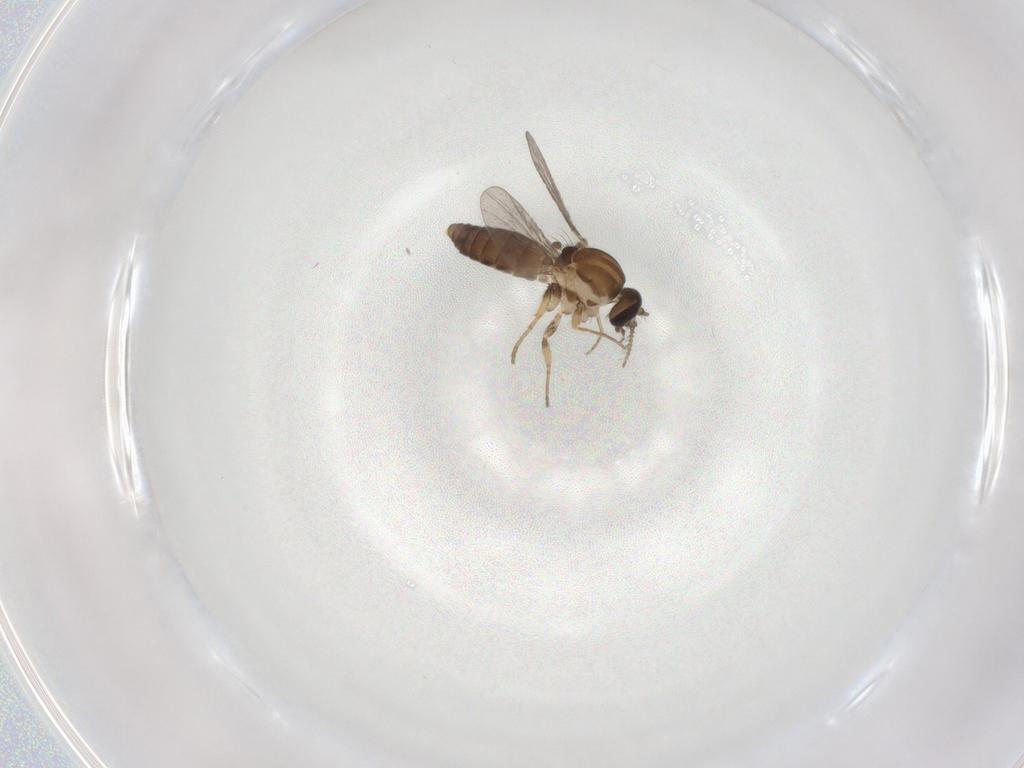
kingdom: Animalia
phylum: Arthropoda
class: Insecta
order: Diptera
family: Ceratopogonidae
